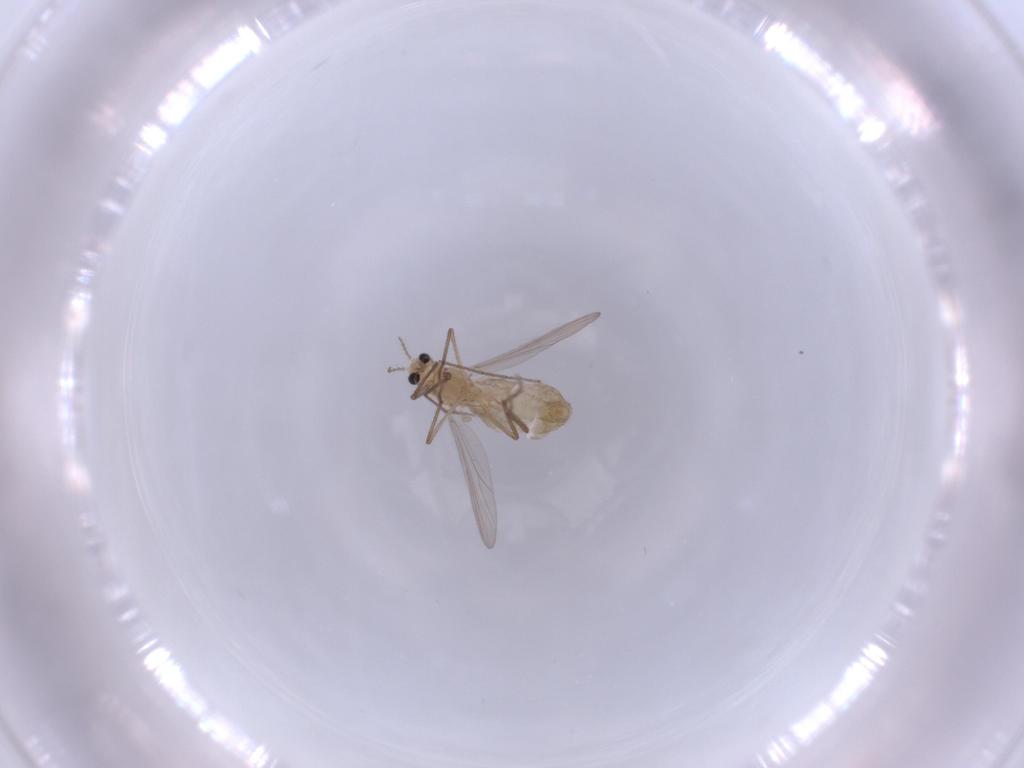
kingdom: Animalia
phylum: Arthropoda
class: Insecta
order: Diptera
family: Chironomidae
